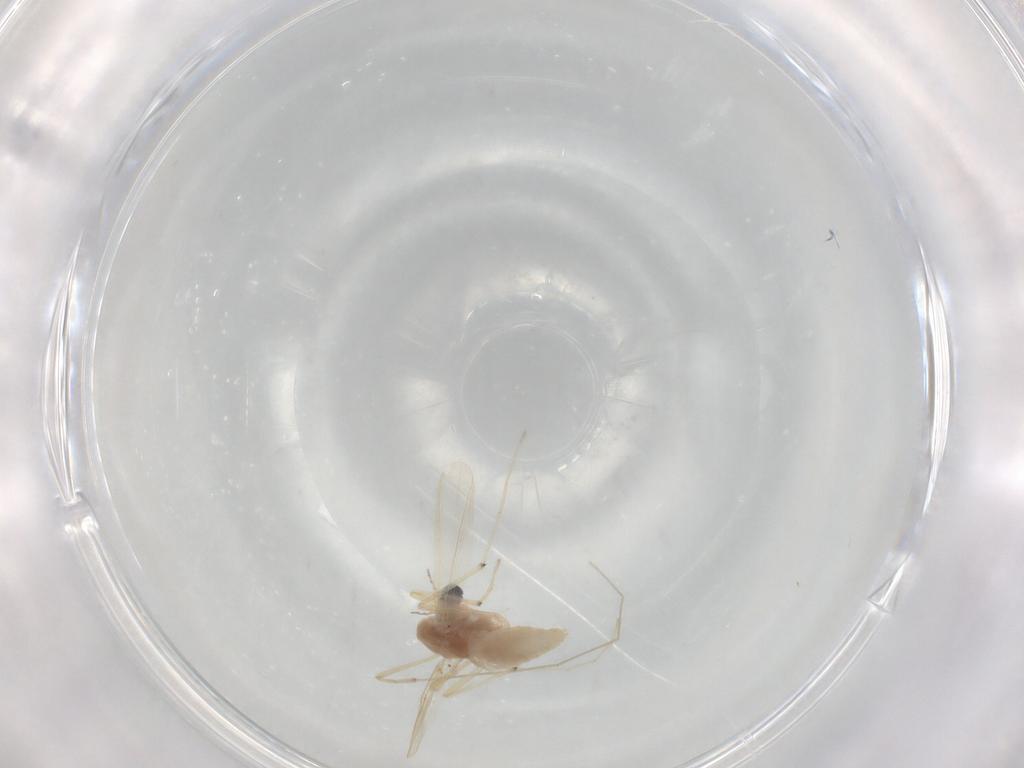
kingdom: Animalia
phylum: Arthropoda
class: Insecta
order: Diptera
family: Chironomidae
